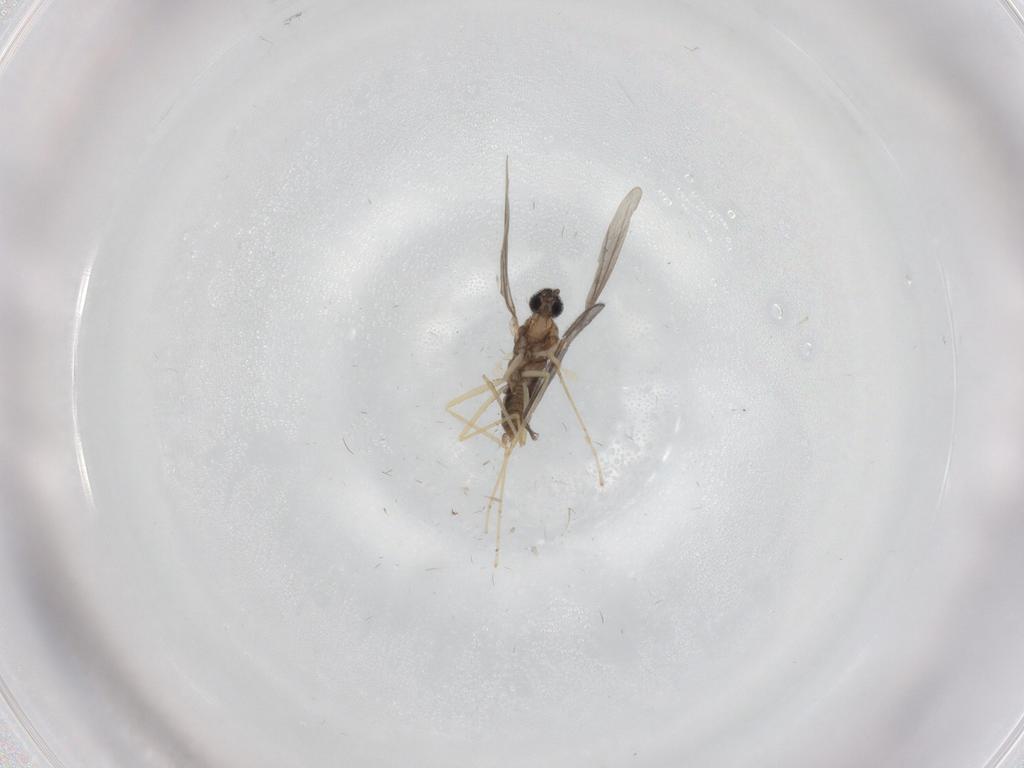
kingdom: Animalia
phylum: Arthropoda
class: Insecta
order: Diptera
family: Cecidomyiidae
